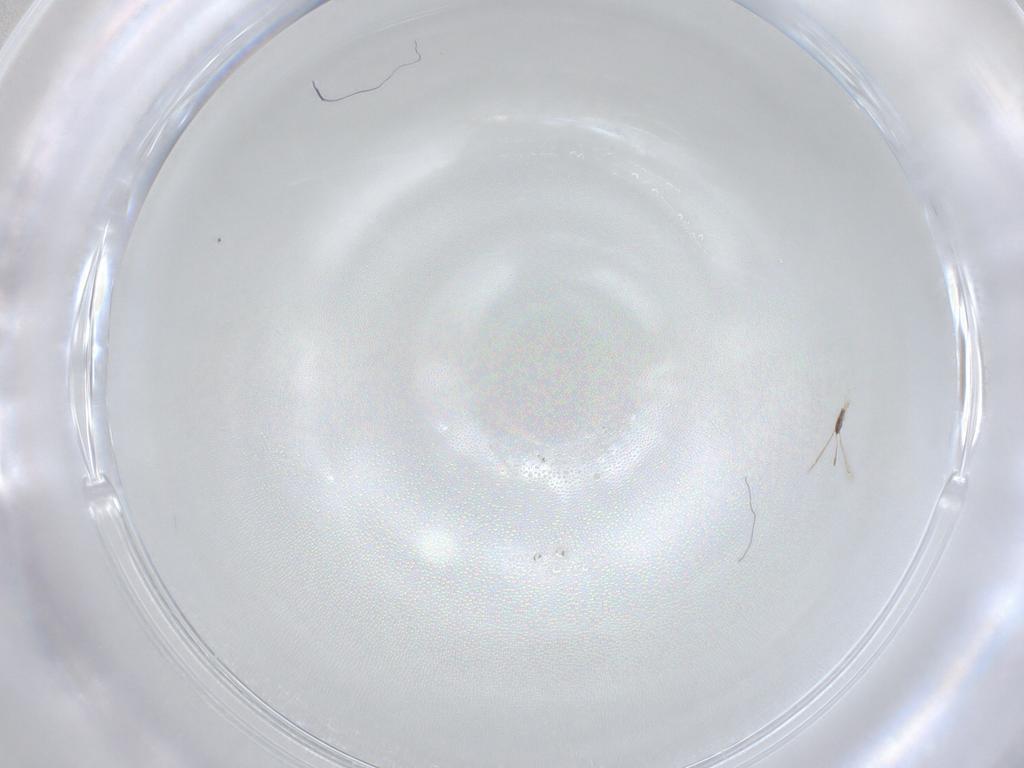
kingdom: Animalia
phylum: Arthropoda
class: Insecta
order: Hymenoptera
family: Mymaridae
